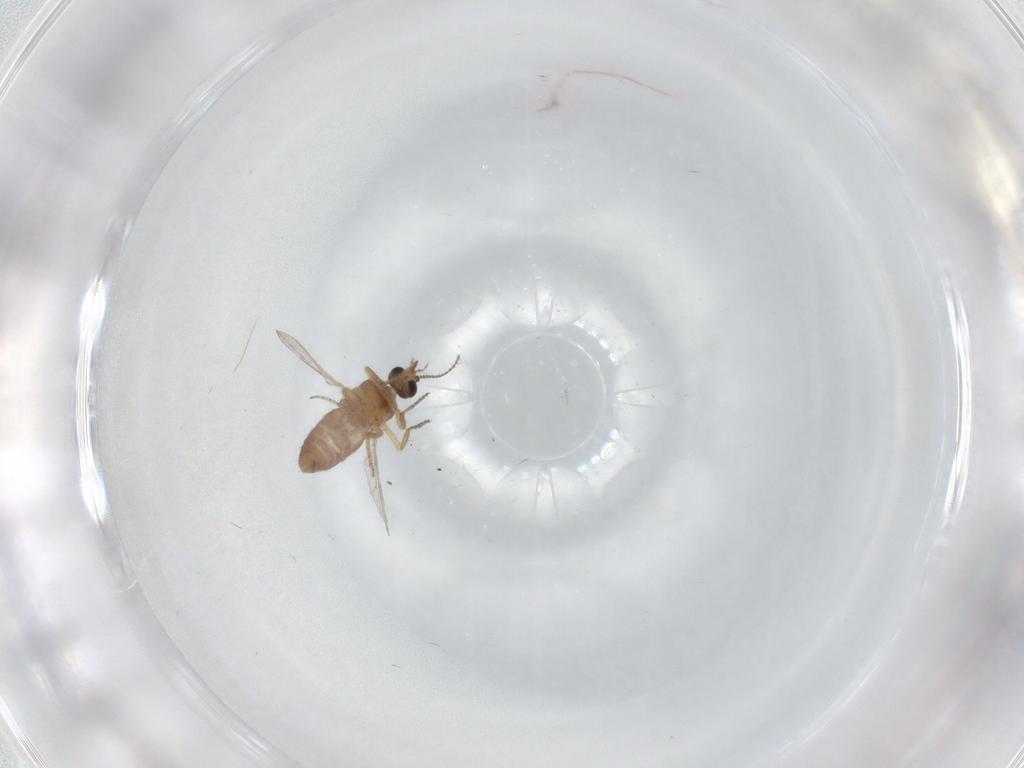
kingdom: Animalia
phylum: Arthropoda
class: Insecta
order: Diptera
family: Ceratopogonidae
